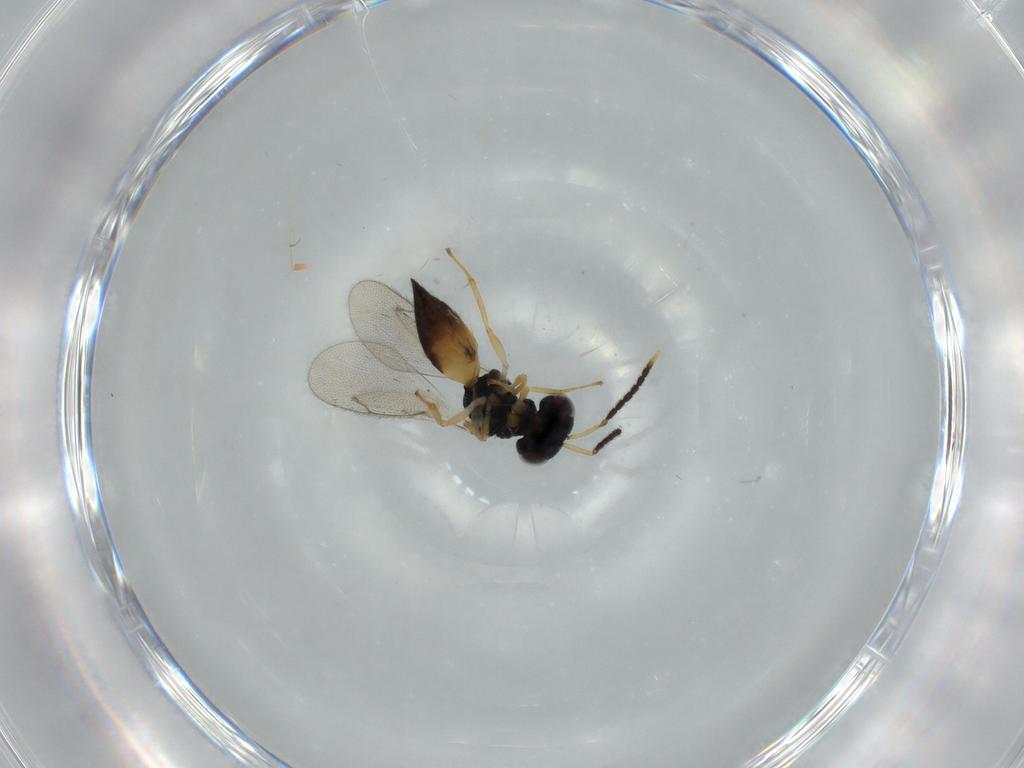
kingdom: Animalia
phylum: Arthropoda
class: Insecta
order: Hymenoptera
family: Pteromalidae
